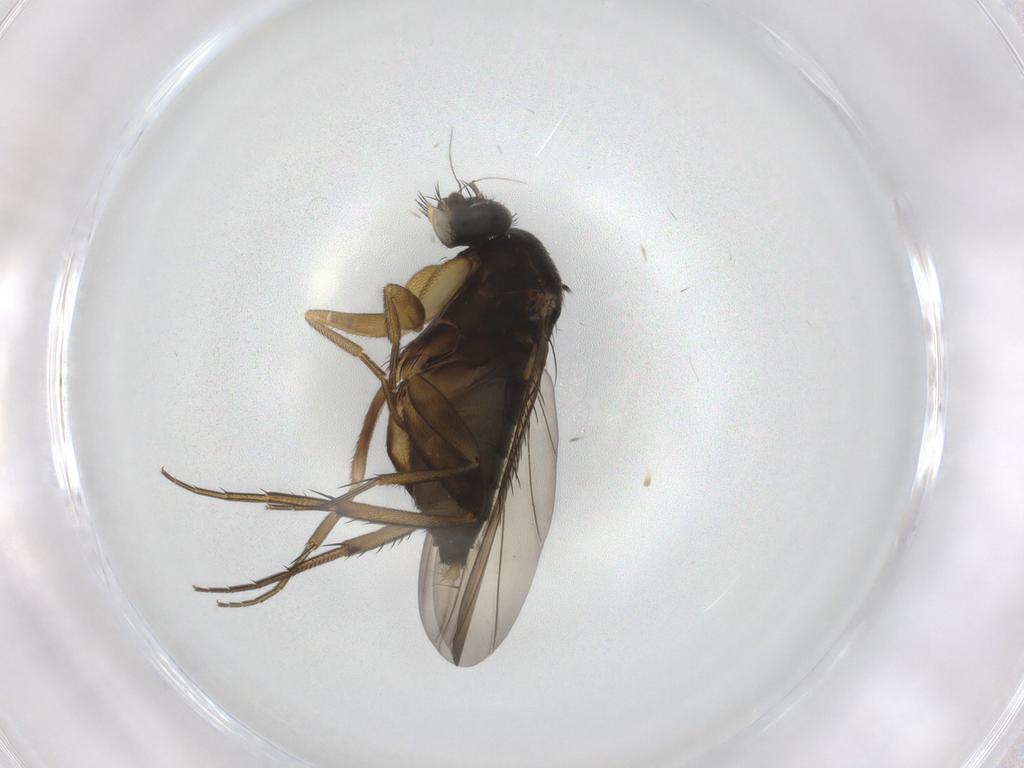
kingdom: Animalia
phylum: Arthropoda
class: Insecta
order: Diptera
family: Phoridae
